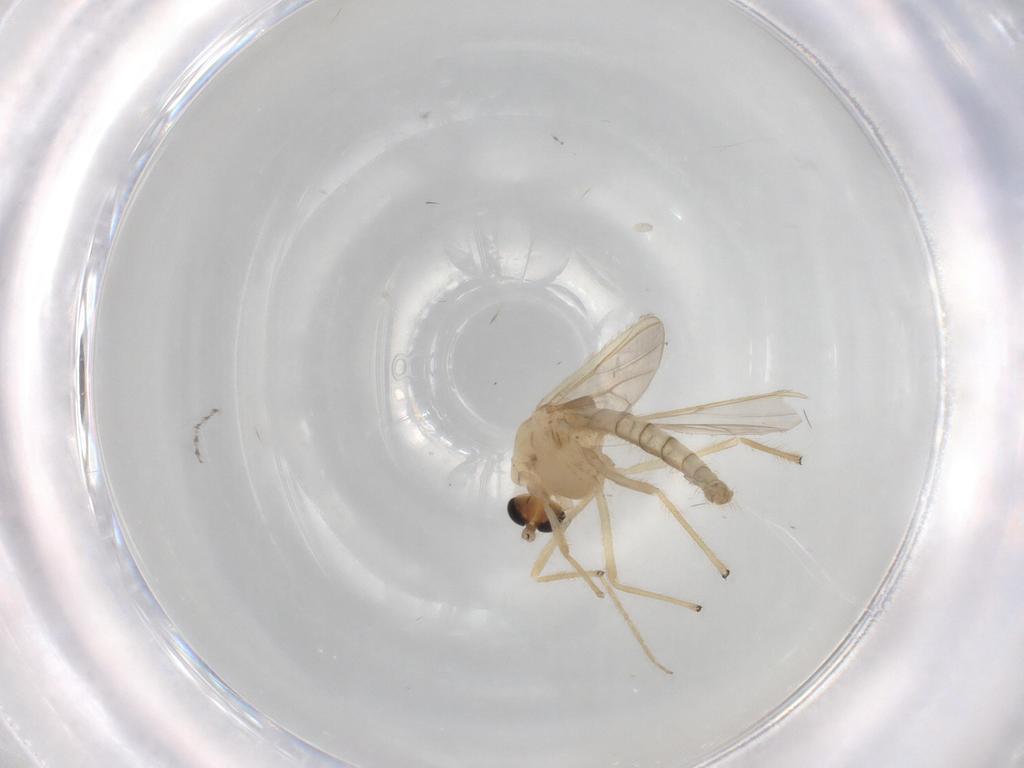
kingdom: Animalia
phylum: Arthropoda
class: Insecta
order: Diptera
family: Chironomidae
